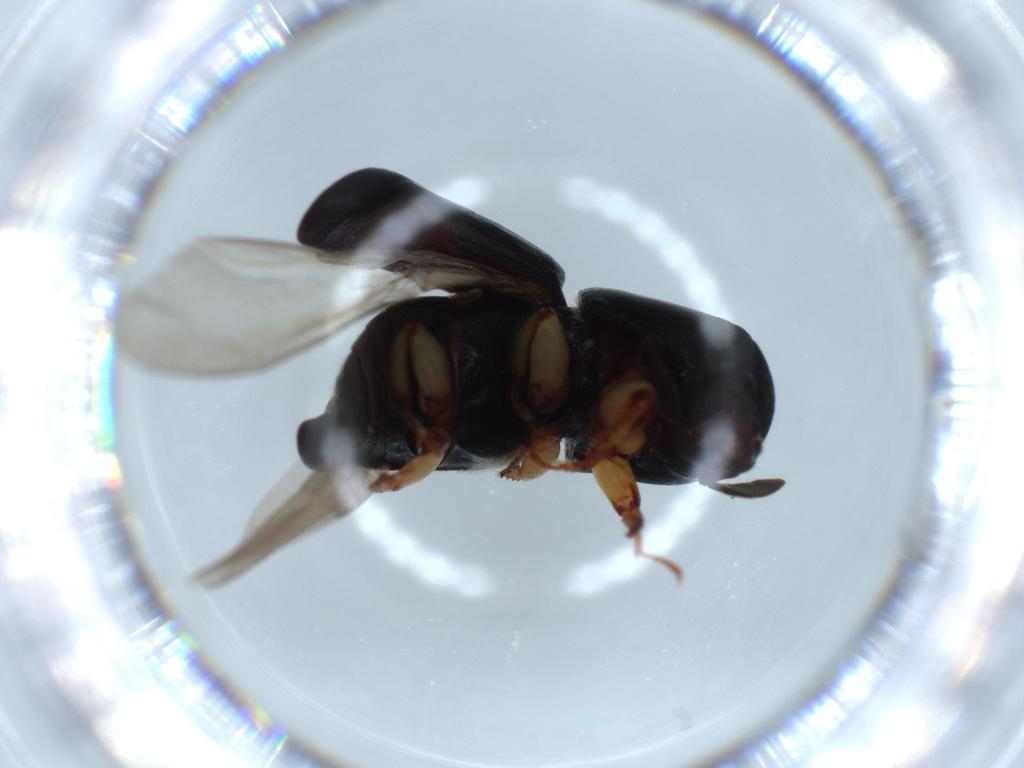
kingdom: Animalia
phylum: Arthropoda
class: Insecta
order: Coleoptera
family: Curculionidae
